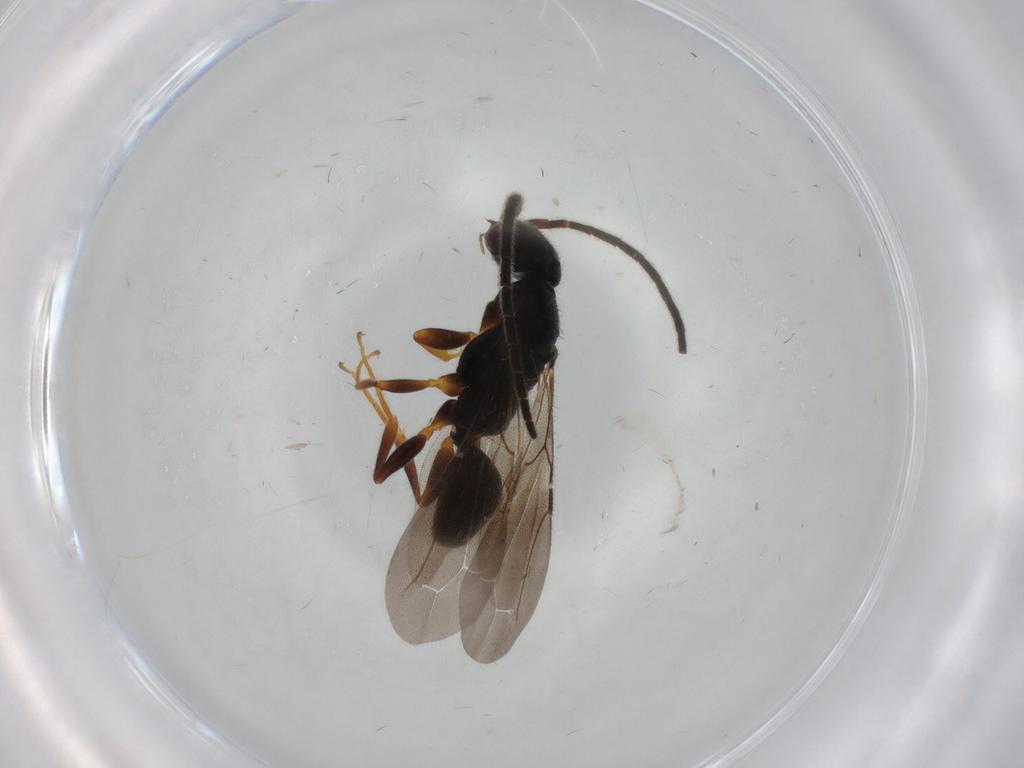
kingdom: Animalia
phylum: Arthropoda
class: Insecta
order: Hymenoptera
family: Bethylidae
